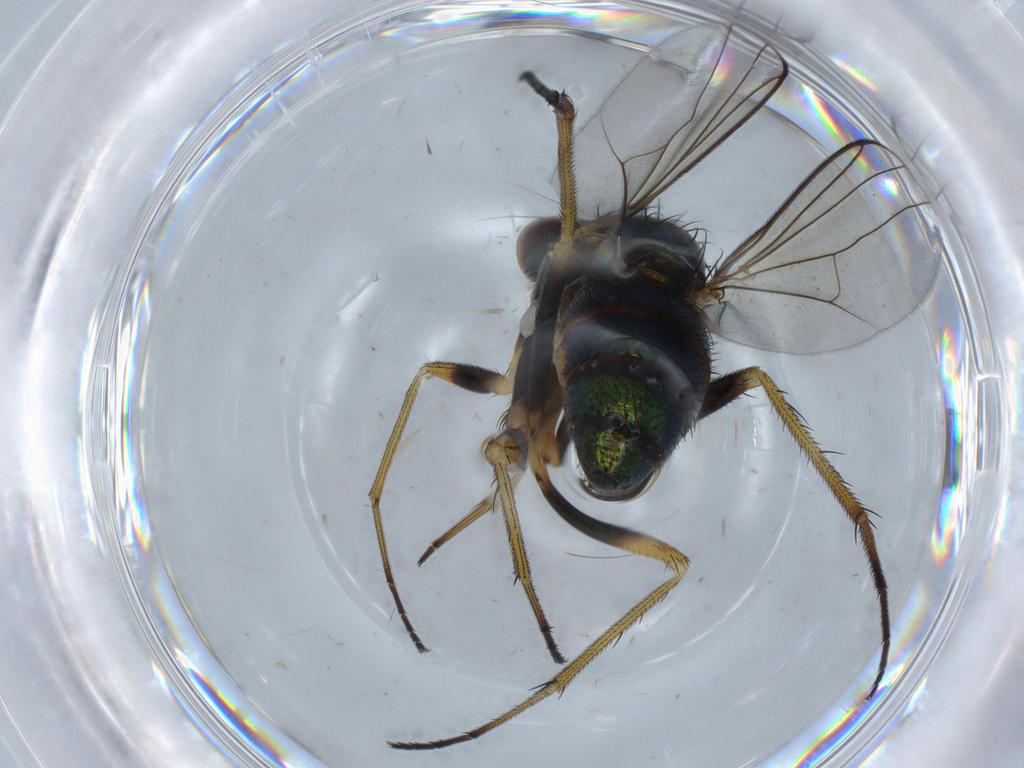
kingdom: Animalia
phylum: Arthropoda
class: Insecta
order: Diptera
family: Dolichopodidae
